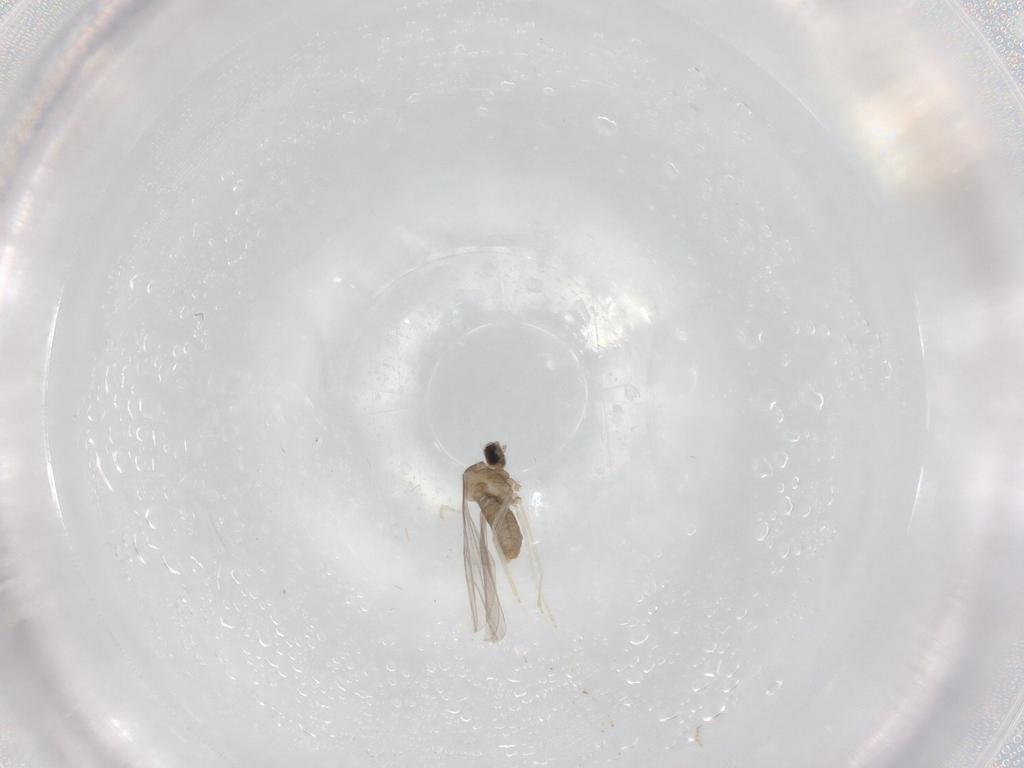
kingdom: Animalia
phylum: Arthropoda
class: Insecta
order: Diptera
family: Cecidomyiidae
